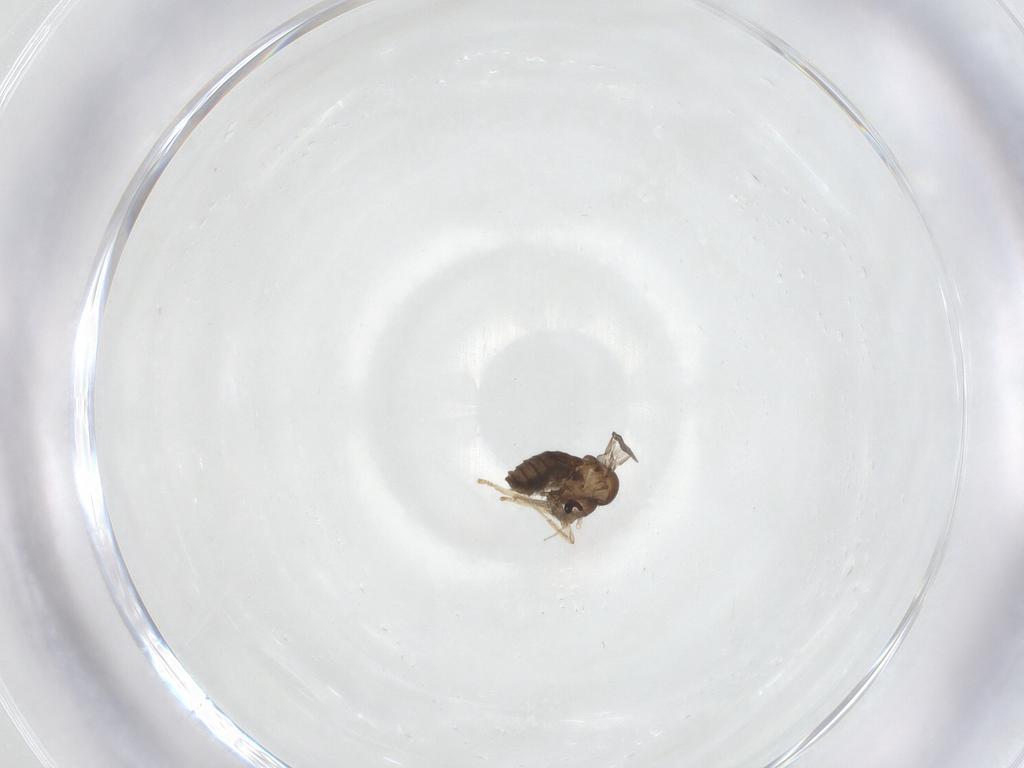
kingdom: Animalia
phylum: Arthropoda
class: Insecta
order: Diptera
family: Psychodidae
